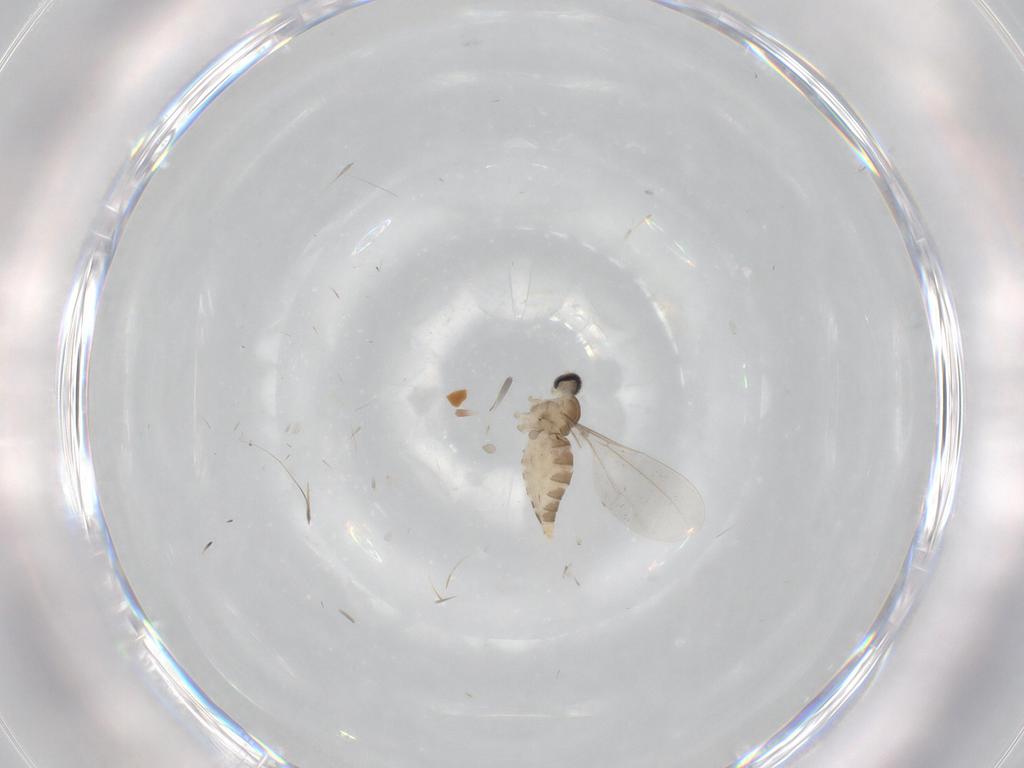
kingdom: Animalia
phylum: Arthropoda
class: Insecta
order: Diptera
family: Cecidomyiidae
